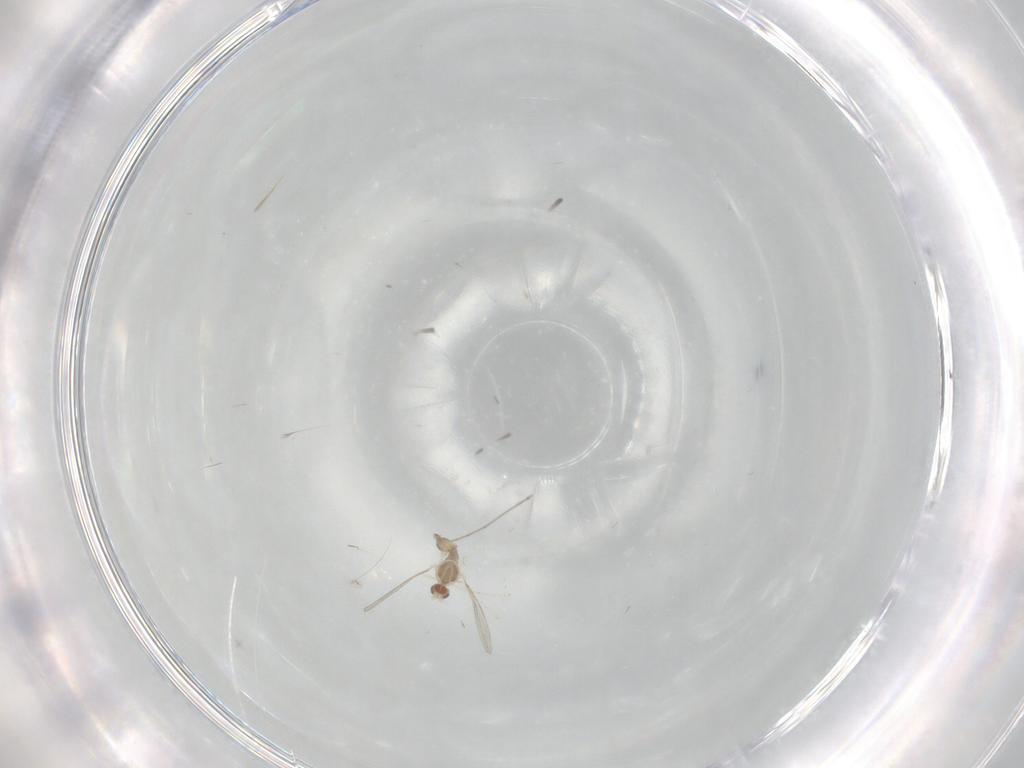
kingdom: Animalia
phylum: Arthropoda
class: Insecta
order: Diptera
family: Cecidomyiidae
